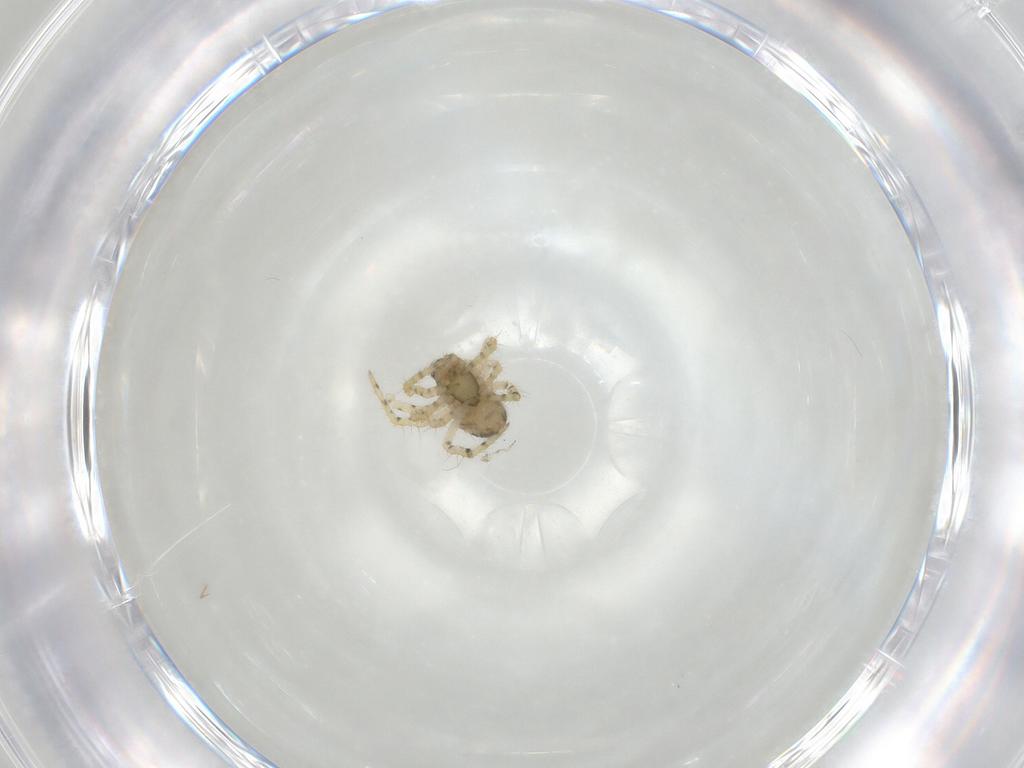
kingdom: Animalia
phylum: Arthropoda
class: Arachnida
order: Araneae
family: Theridiidae
